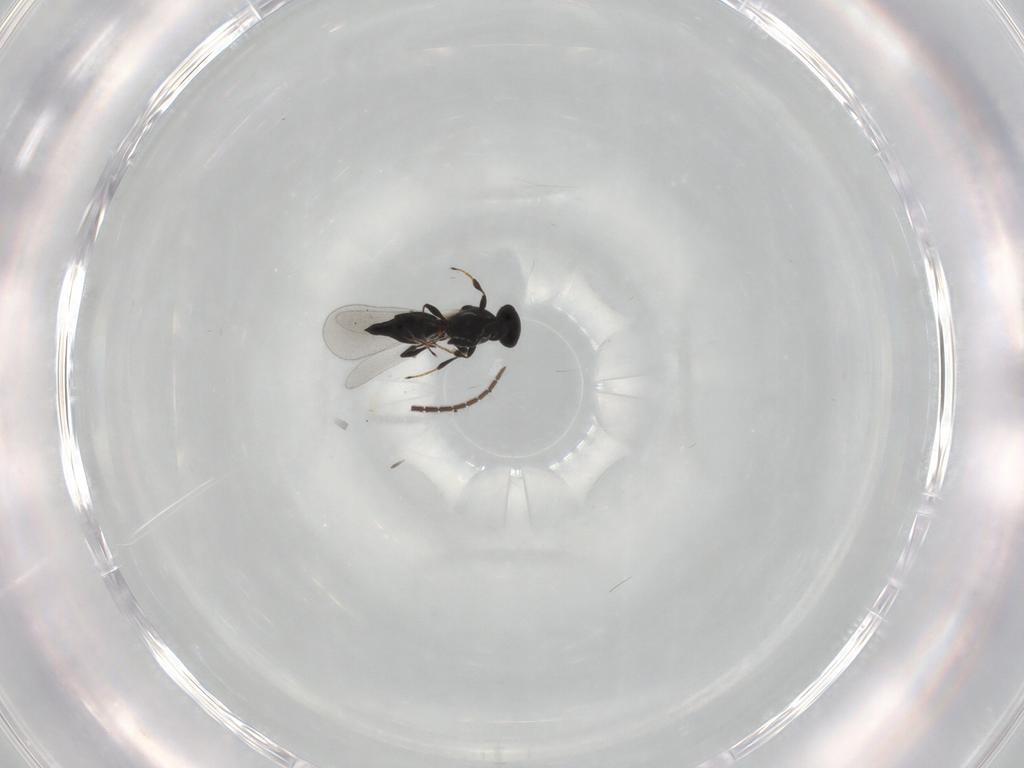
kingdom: Animalia
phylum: Arthropoda
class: Insecta
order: Hymenoptera
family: Platygastridae
